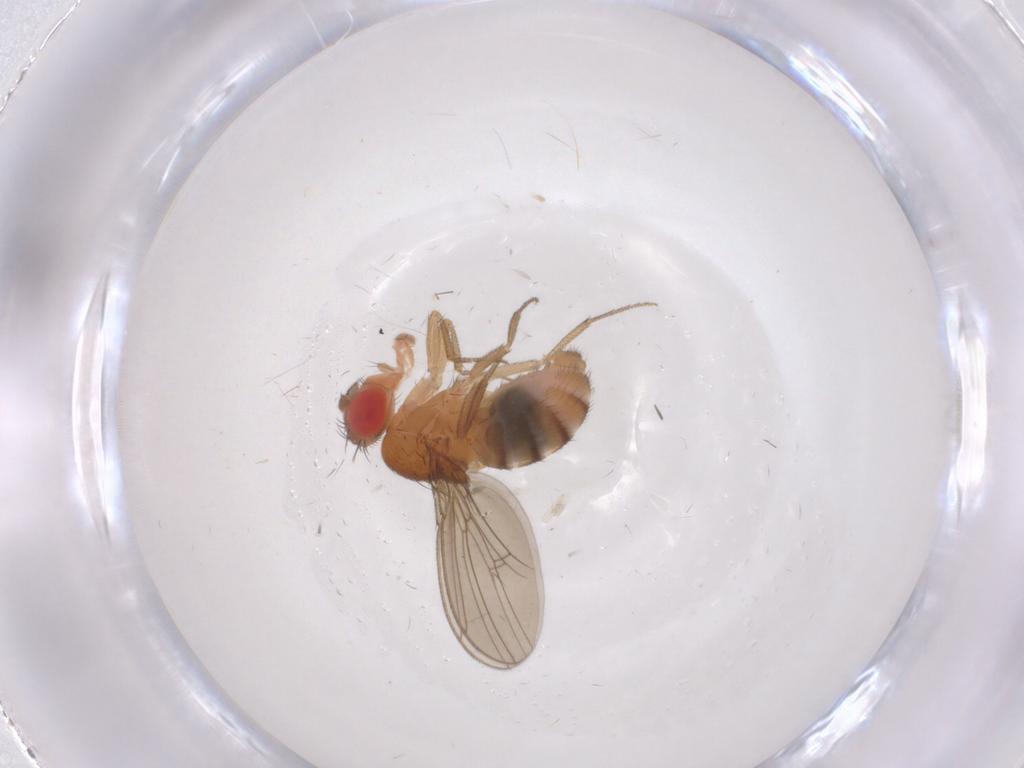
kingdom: Animalia
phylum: Arthropoda
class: Insecta
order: Diptera
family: Drosophilidae
